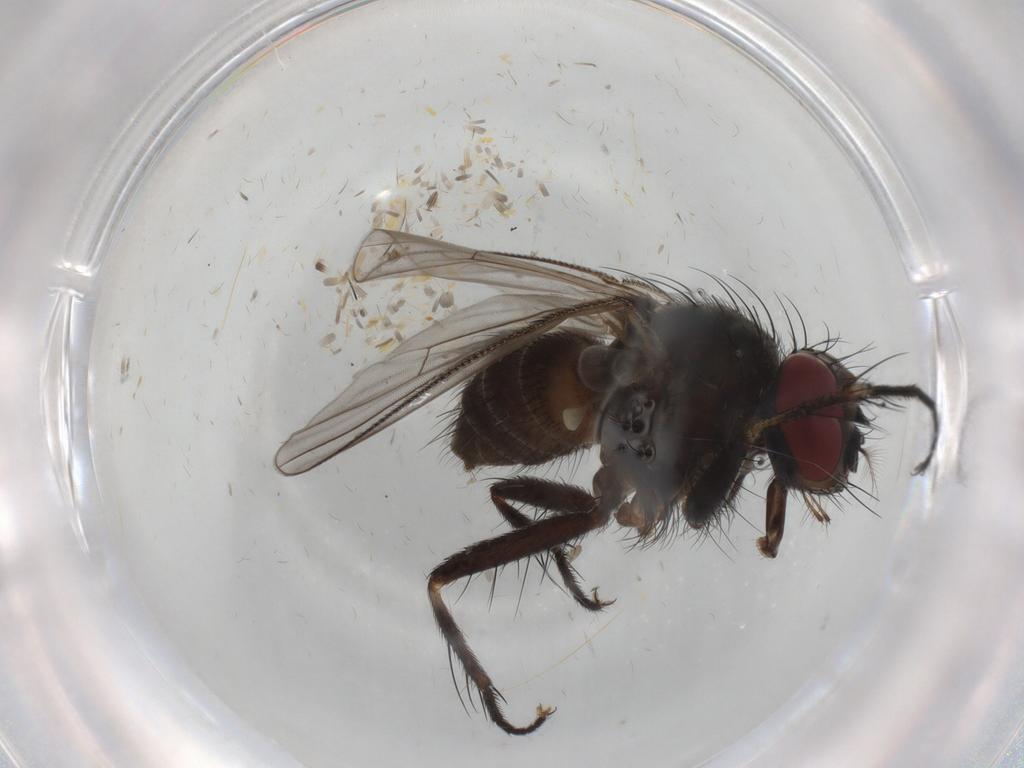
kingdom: Animalia
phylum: Arthropoda
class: Insecta
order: Diptera
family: Muscidae
